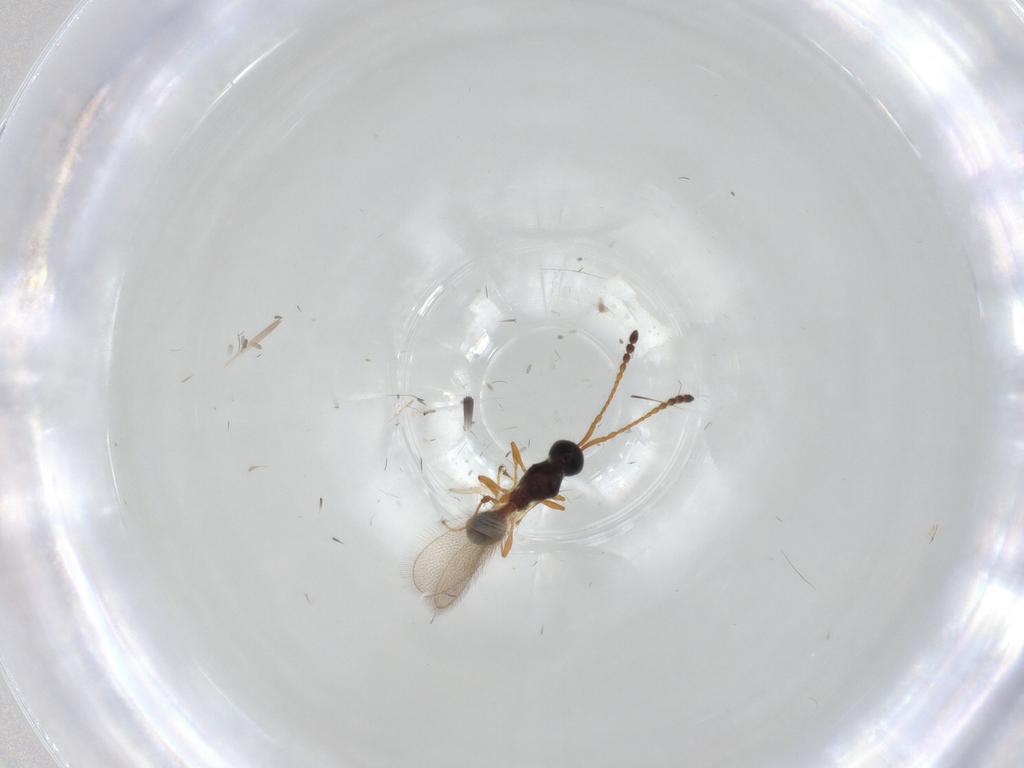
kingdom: Animalia
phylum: Arthropoda
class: Insecta
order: Hymenoptera
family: Diapriidae
